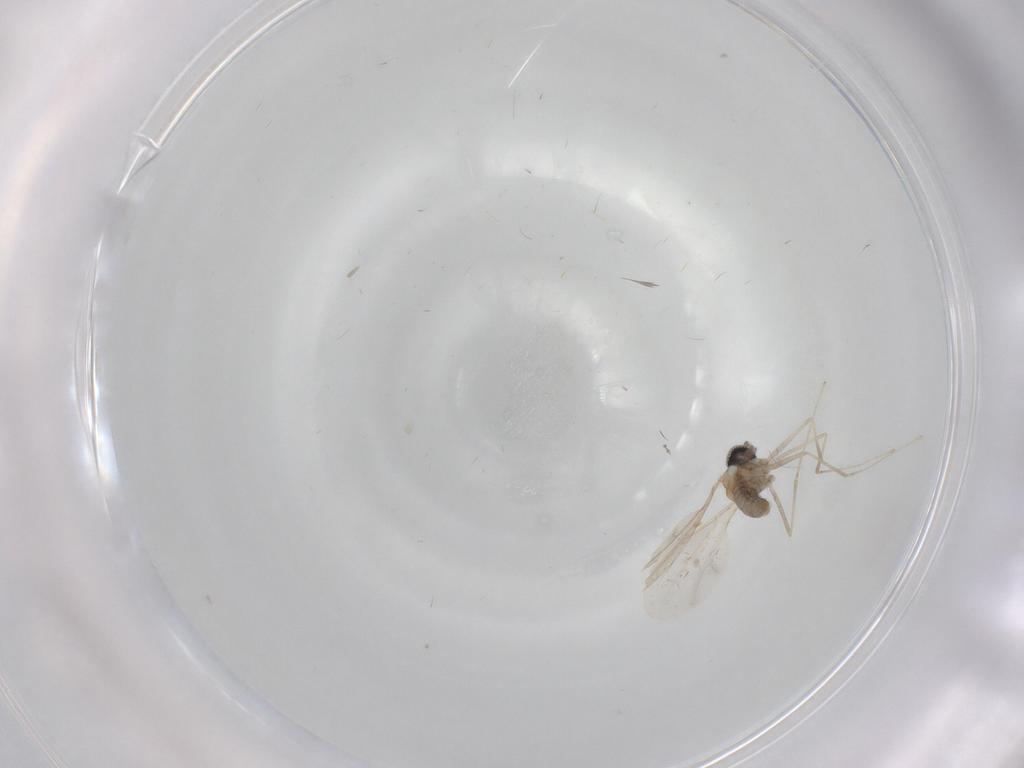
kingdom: Animalia
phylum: Arthropoda
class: Insecta
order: Diptera
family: Cecidomyiidae
